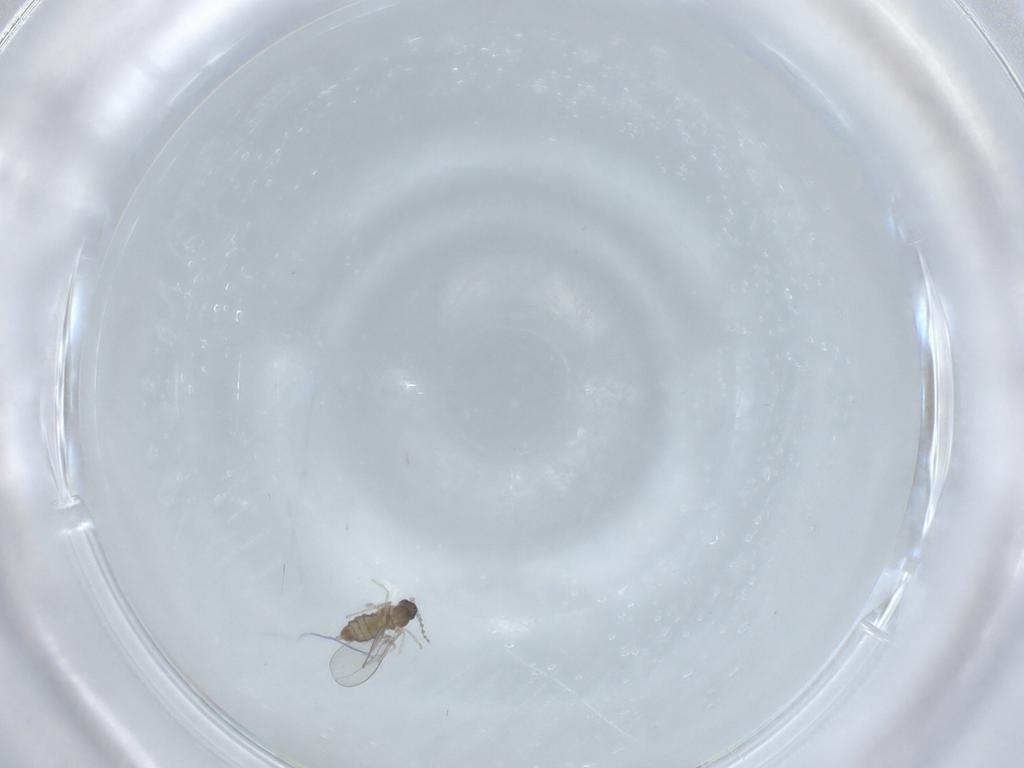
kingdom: Animalia
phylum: Arthropoda
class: Insecta
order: Diptera
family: Cecidomyiidae
